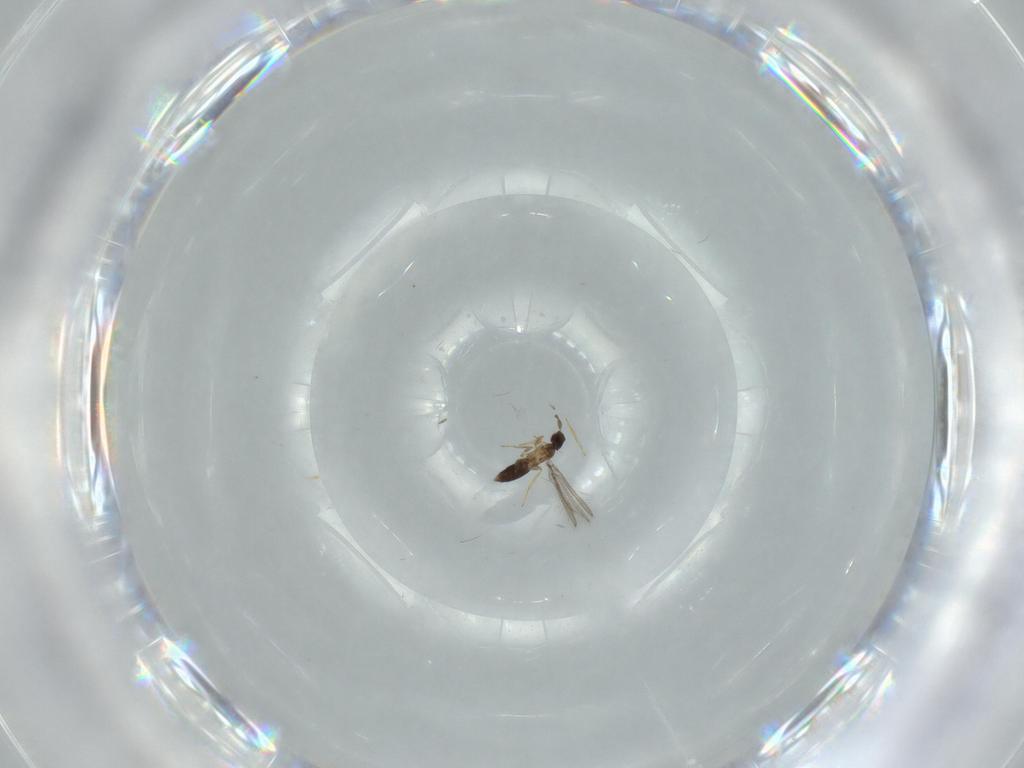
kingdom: Animalia
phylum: Arthropoda
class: Insecta
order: Hymenoptera
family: Mymaridae
